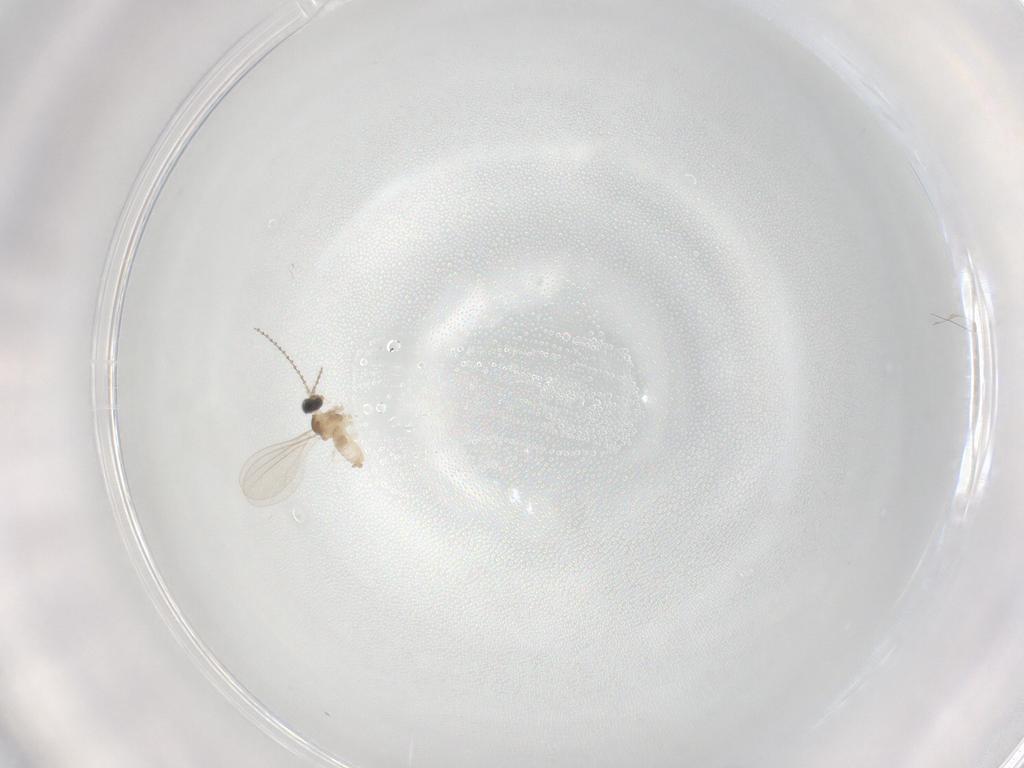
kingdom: Animalia
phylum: Arthropoda
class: Insecta
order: Diptera
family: Cecidomyiidae
